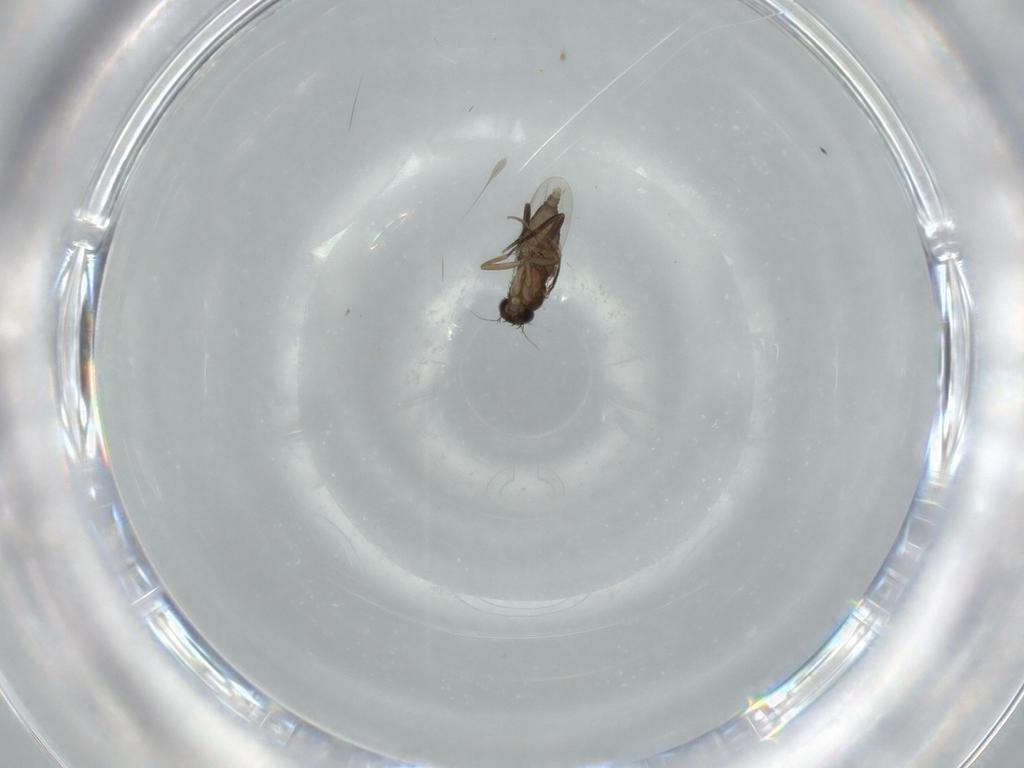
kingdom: Animalia
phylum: Arthropoda
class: Insecta
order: Diptera
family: Phoridae
